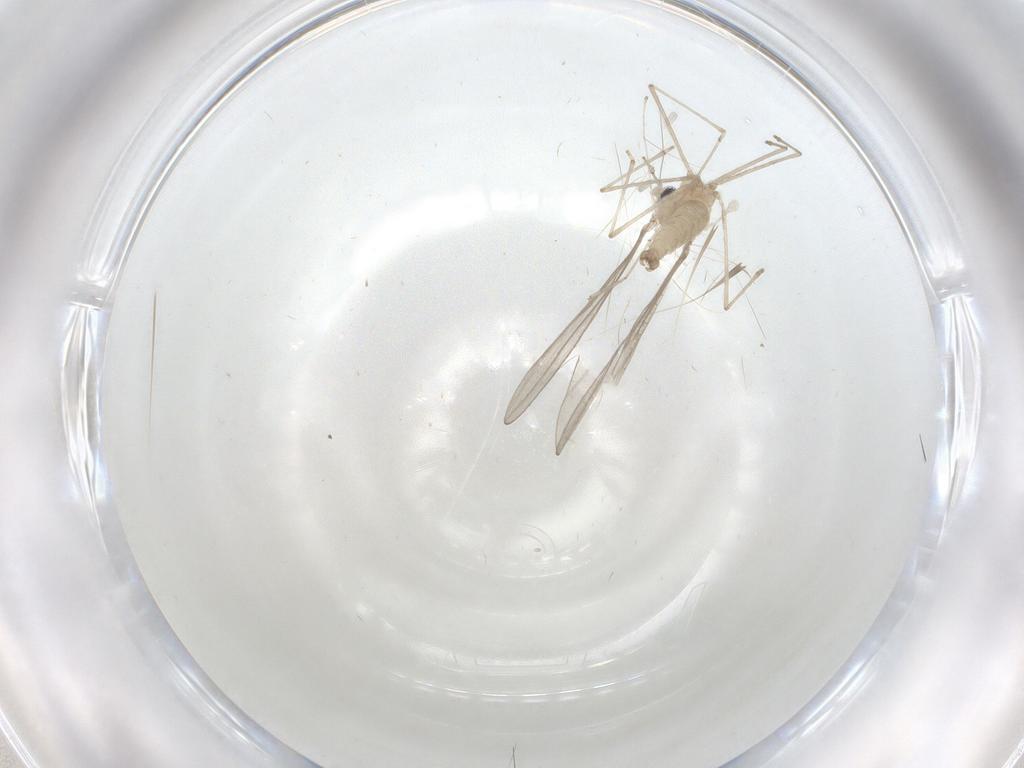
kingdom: Animalia
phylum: Arthropoda
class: Insecta
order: Diptera
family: Cecidomyiidae
